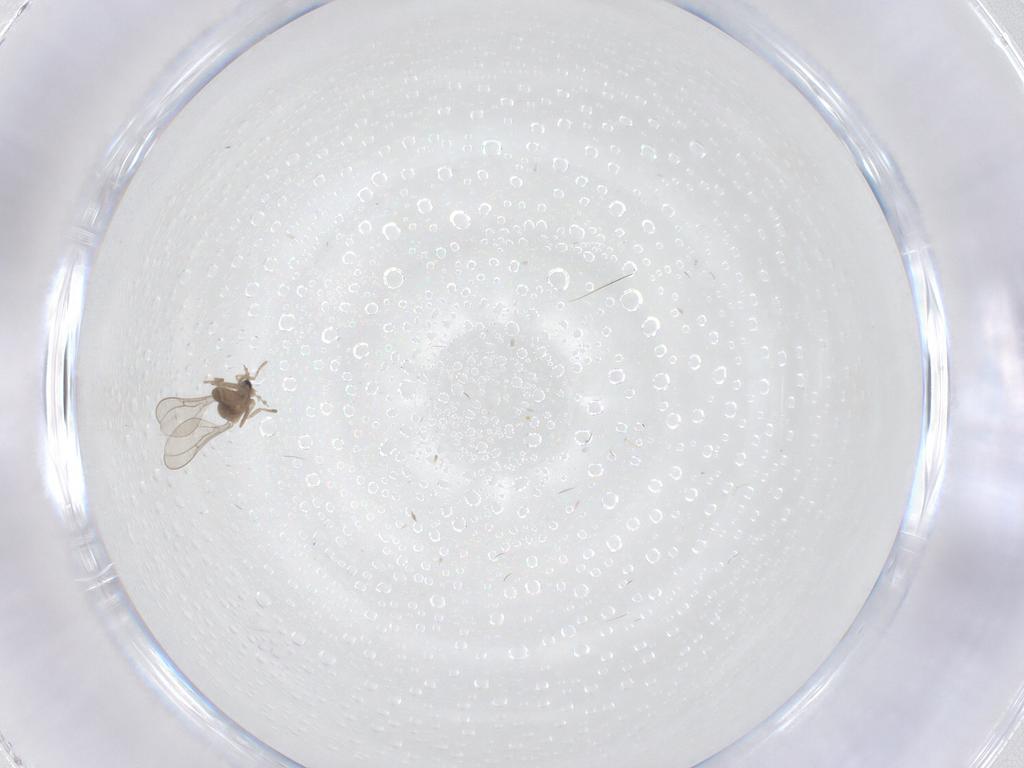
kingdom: Animalia
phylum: Arthropoda
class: Insecta
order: Diptera
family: Cecidomyiidae
